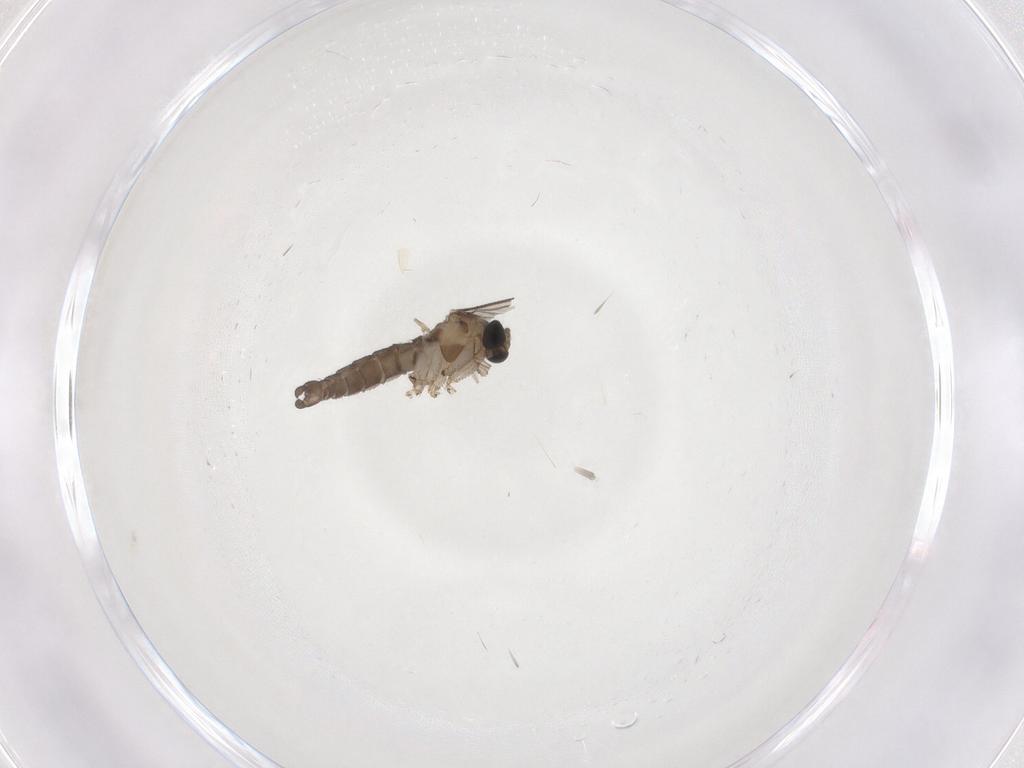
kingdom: Animalia
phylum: Arthropoda
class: Insecta
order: Diptera
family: Sciaridae
